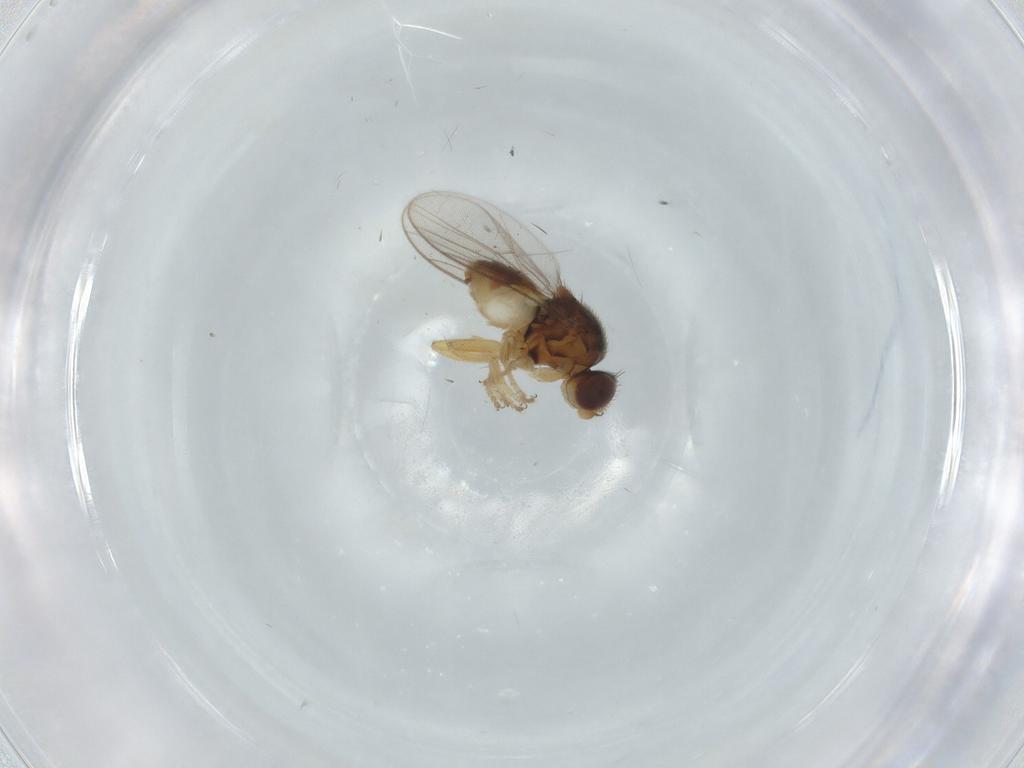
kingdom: Animalia
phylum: Arthropoda
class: Insecta
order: Diptera
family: Chloropidae
